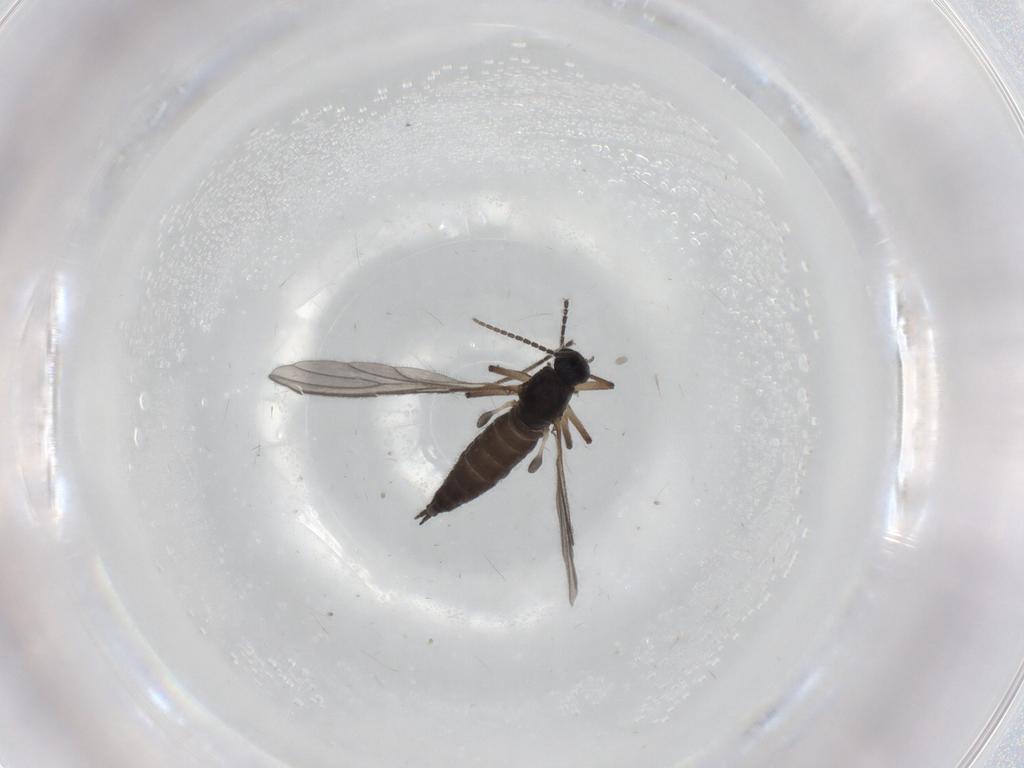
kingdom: Animalia
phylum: Arthropoda
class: Insecta
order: Diptera
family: Sciaridae
